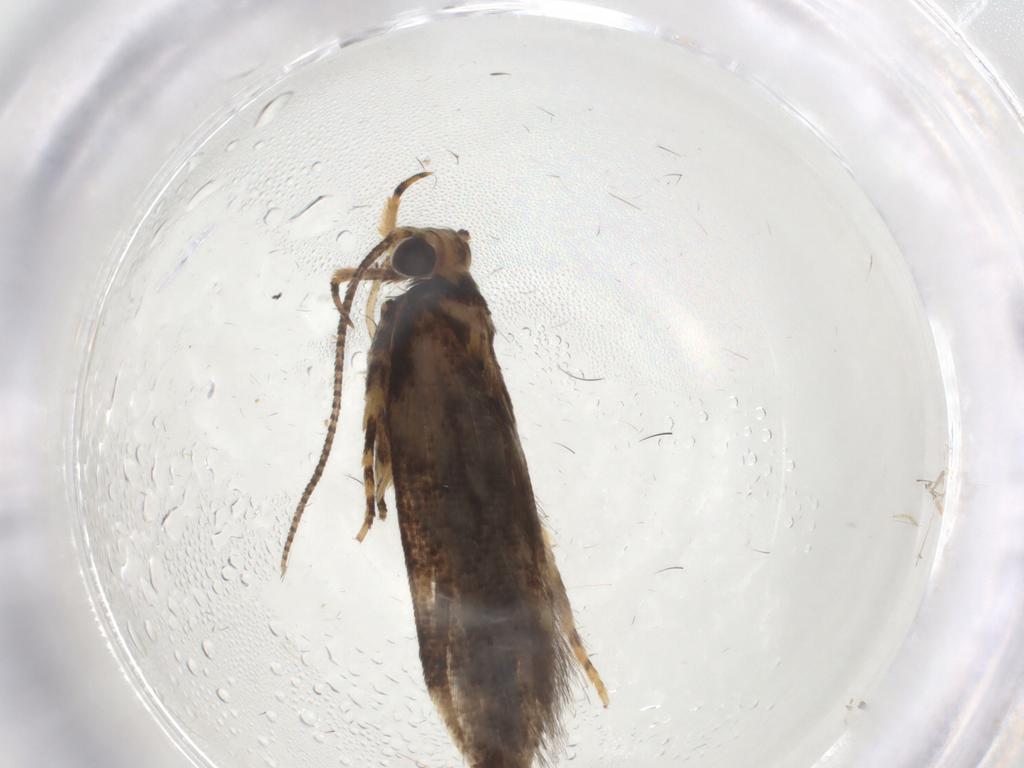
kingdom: Animalia
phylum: Arthropoda
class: Insecta
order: Lepidoptera
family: Gelechiidae
